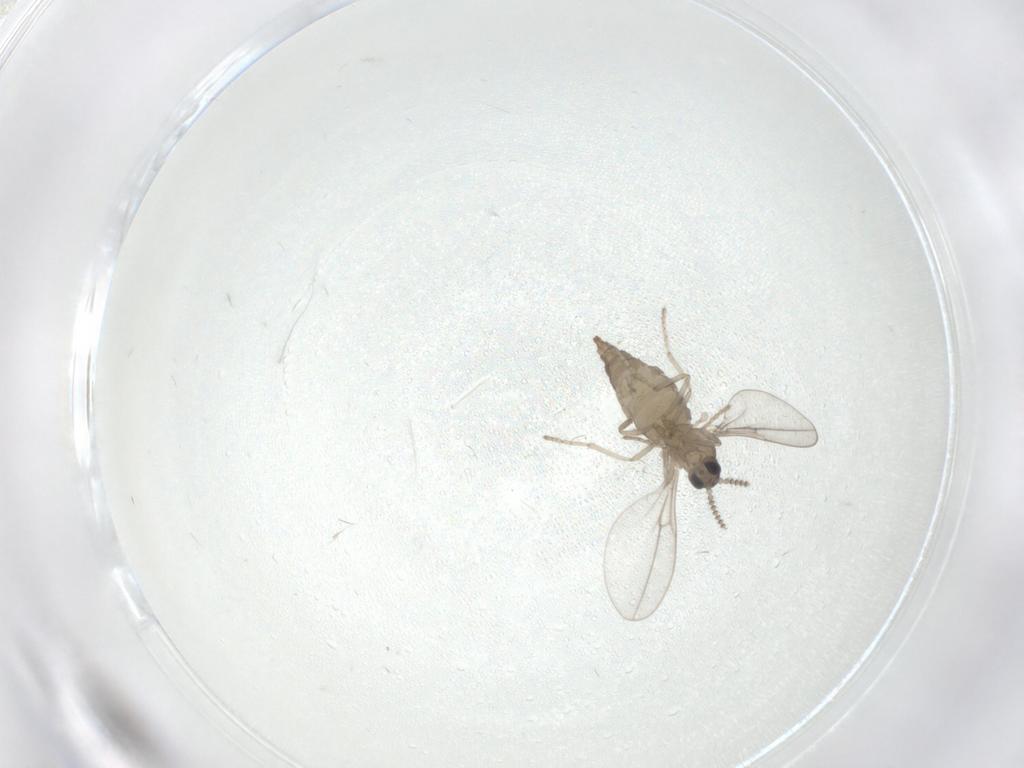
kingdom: Animalia
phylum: Arthropoda
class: Insecta
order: Diptera
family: Cecidomyiidae
